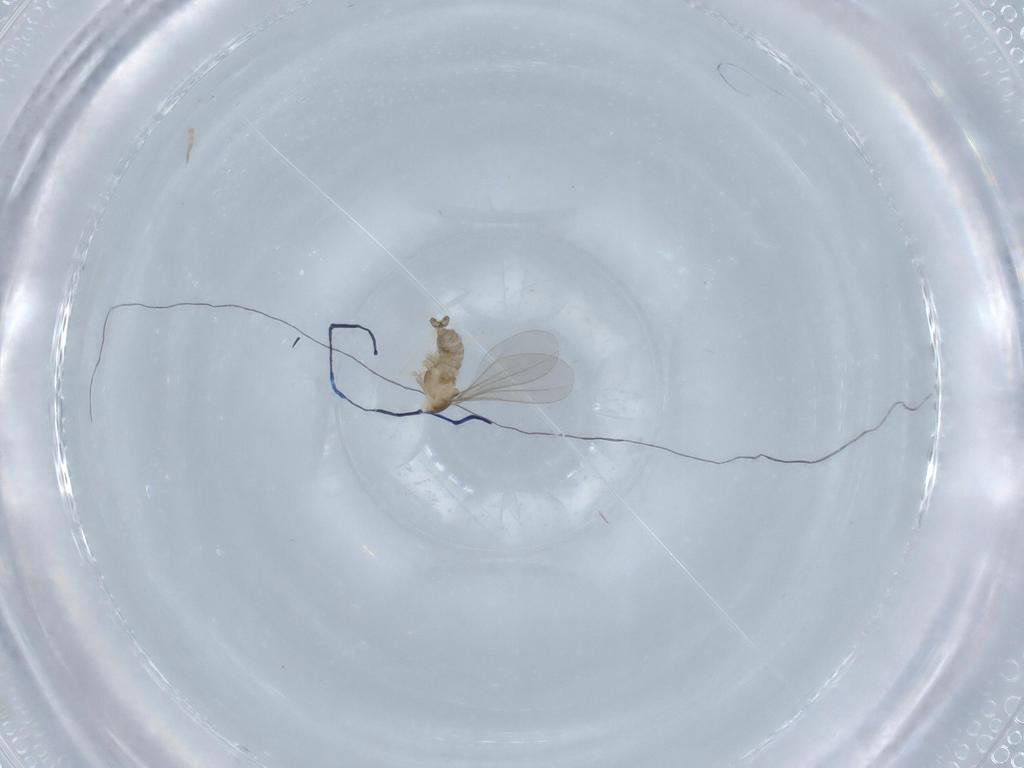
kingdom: Animalia
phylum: Arthropoda
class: Insecta
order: Diptera
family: Cecidomyiidae
